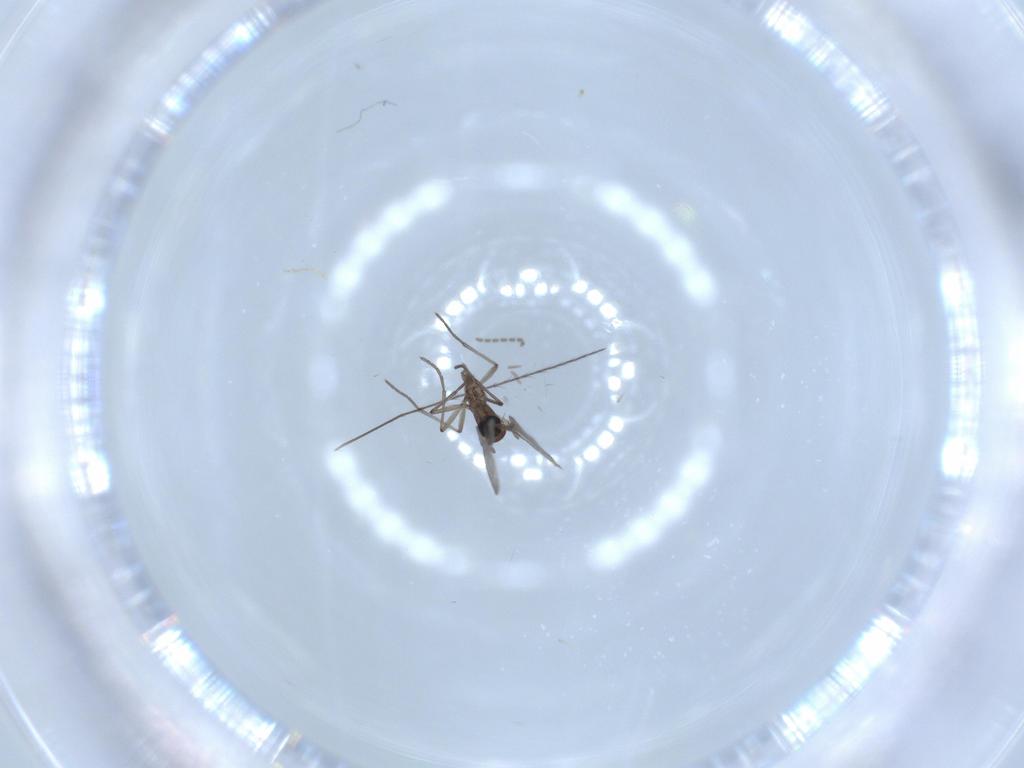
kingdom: Animalia
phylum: Arthropoda
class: Insecta
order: Diptera
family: Sciaridae
